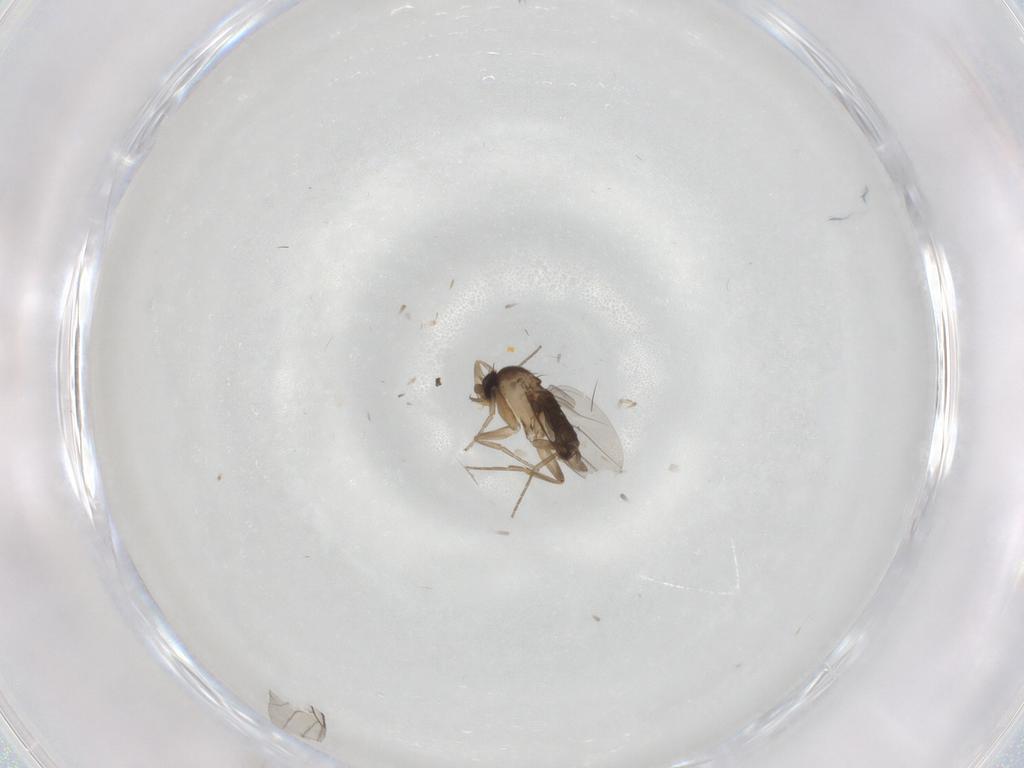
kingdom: Animalia
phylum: Arthropoda
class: Insecta
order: Diptera
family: Phoridae
